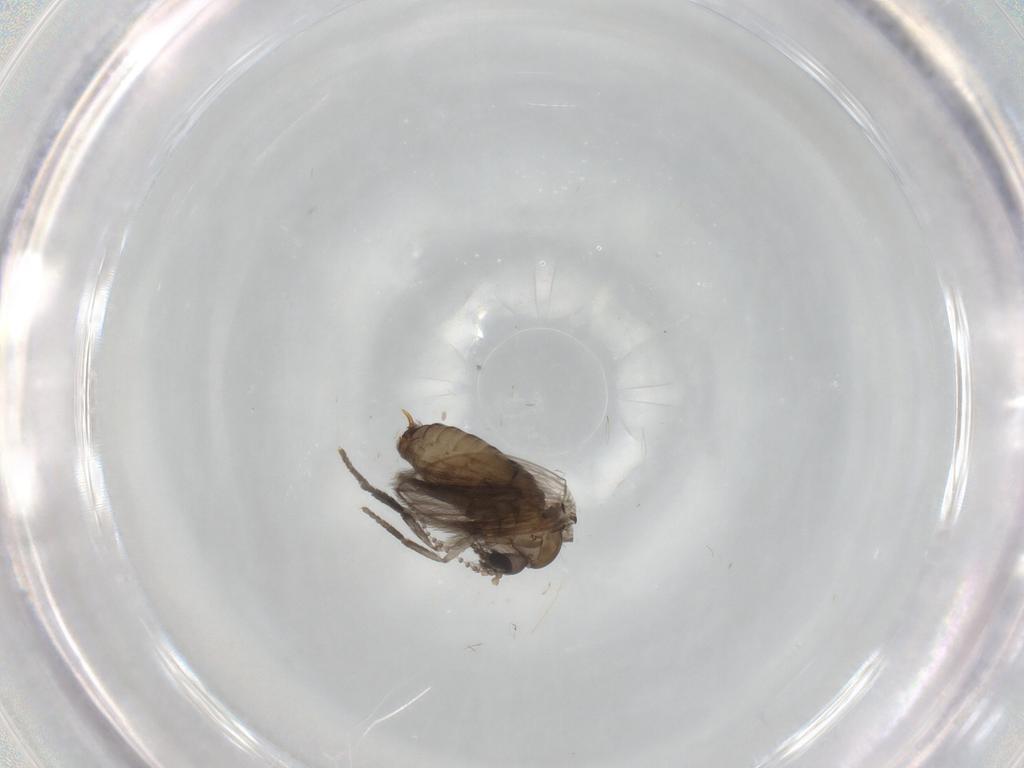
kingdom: Animalia
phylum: Arthropoda
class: Insecta
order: Diptera
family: Psychodidae
